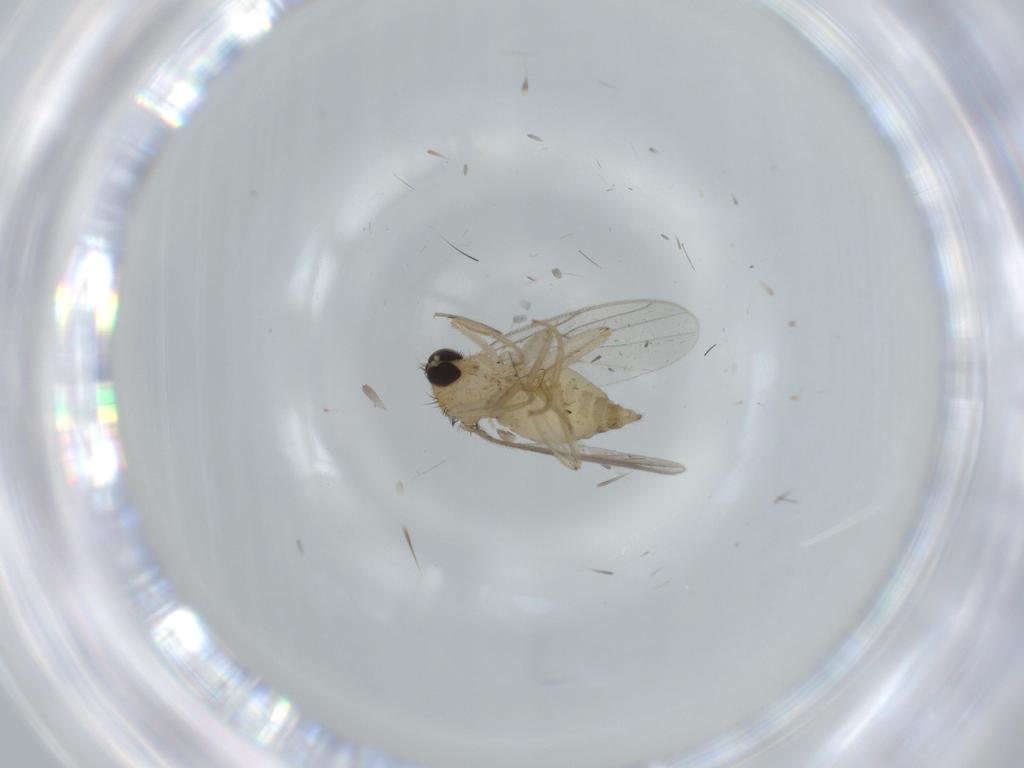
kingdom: Animalia
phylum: Arthropoda
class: Insecta
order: Diptera
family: Hybotidae
